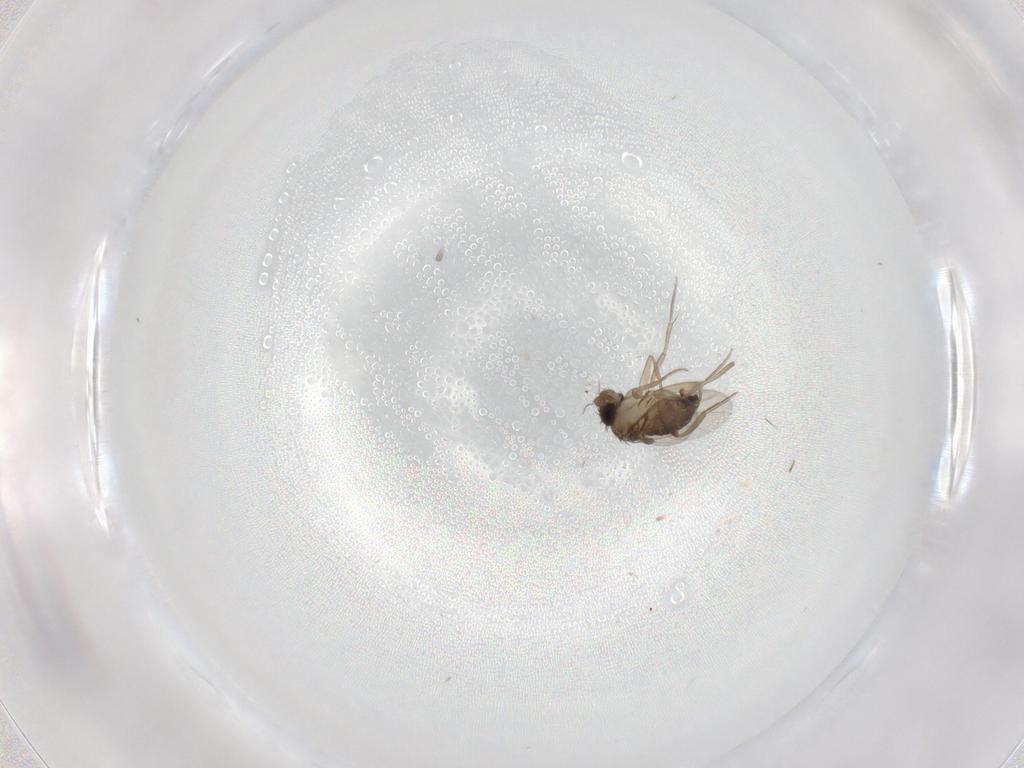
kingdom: Animalia
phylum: Arthropoda
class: Insecta
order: Diptera
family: Phoridae
